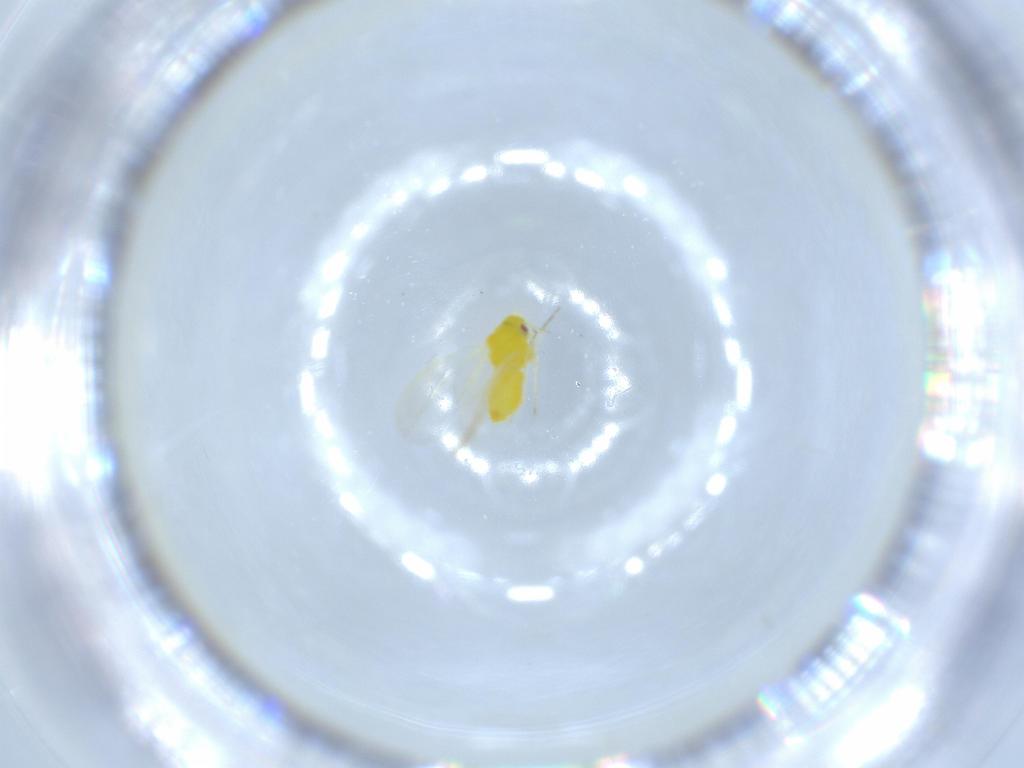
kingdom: Animalia
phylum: Arthropoda
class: Insecta
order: Hemiptera
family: Aleyrodidae
